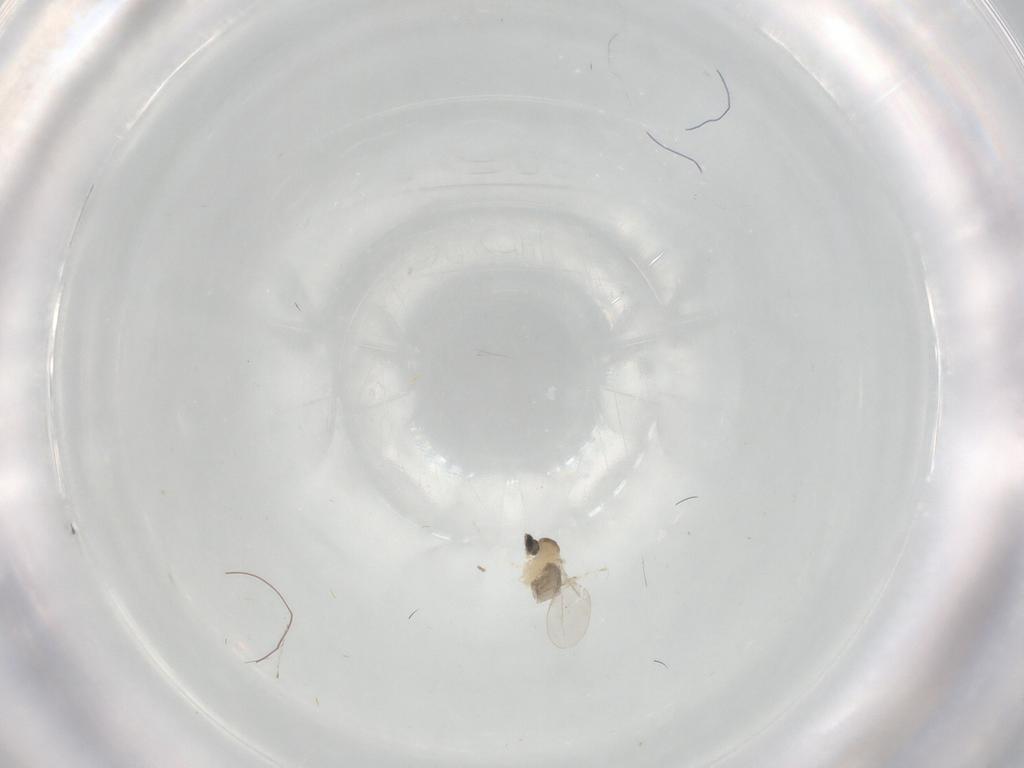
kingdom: Animalia
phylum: Arthropoda
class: Insecta
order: Diptera
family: Cecidomyiidae
